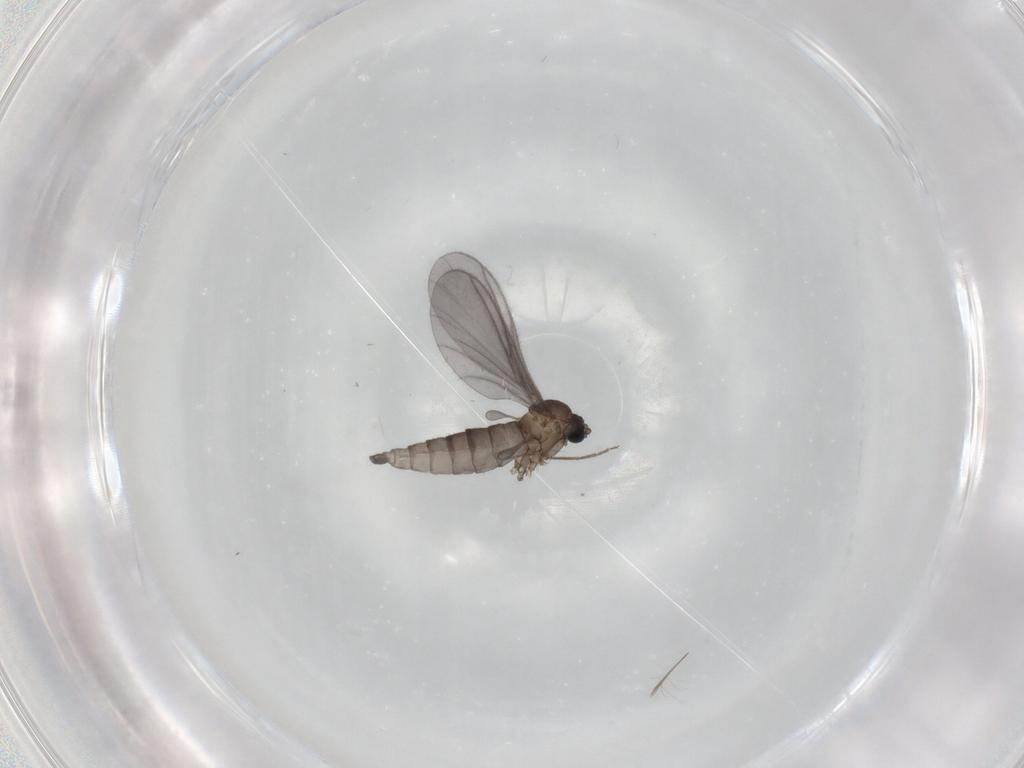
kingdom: Animalia
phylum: Arthropoda
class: Insecta
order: Diptera
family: Sciaridae
